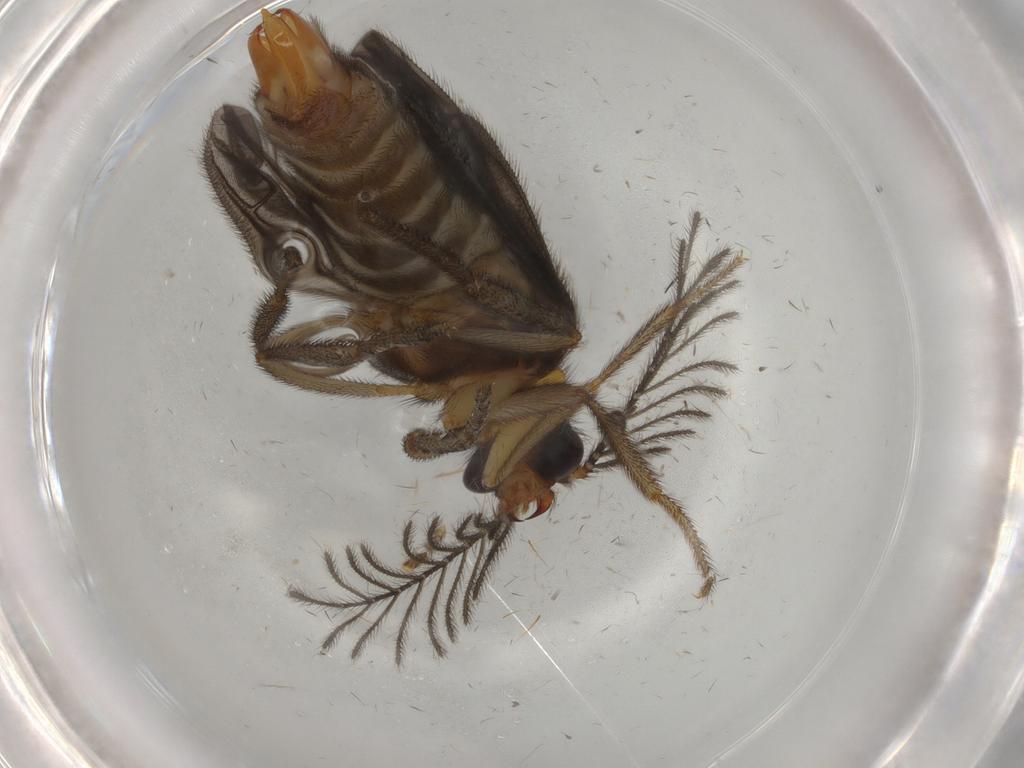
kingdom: Animalia
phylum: Arthropoda
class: Insecta
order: Coleoptera
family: Phengodidae
